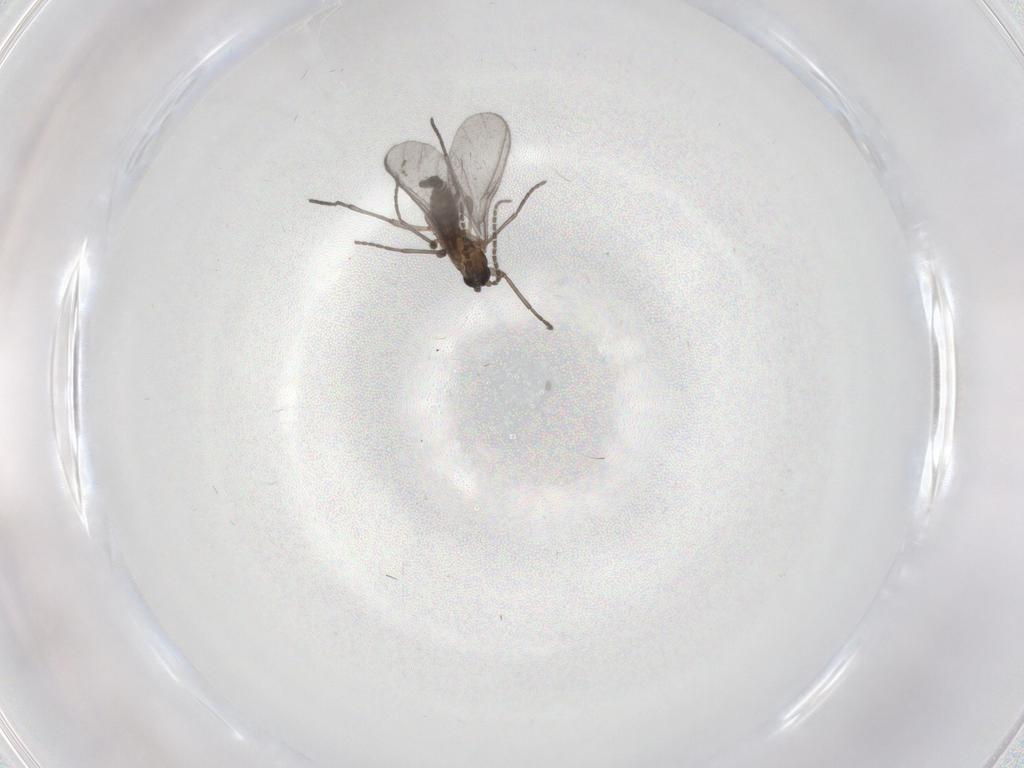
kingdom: Animalia
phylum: Arthropoda
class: Insecta
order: Diptera
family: Sciaridae
